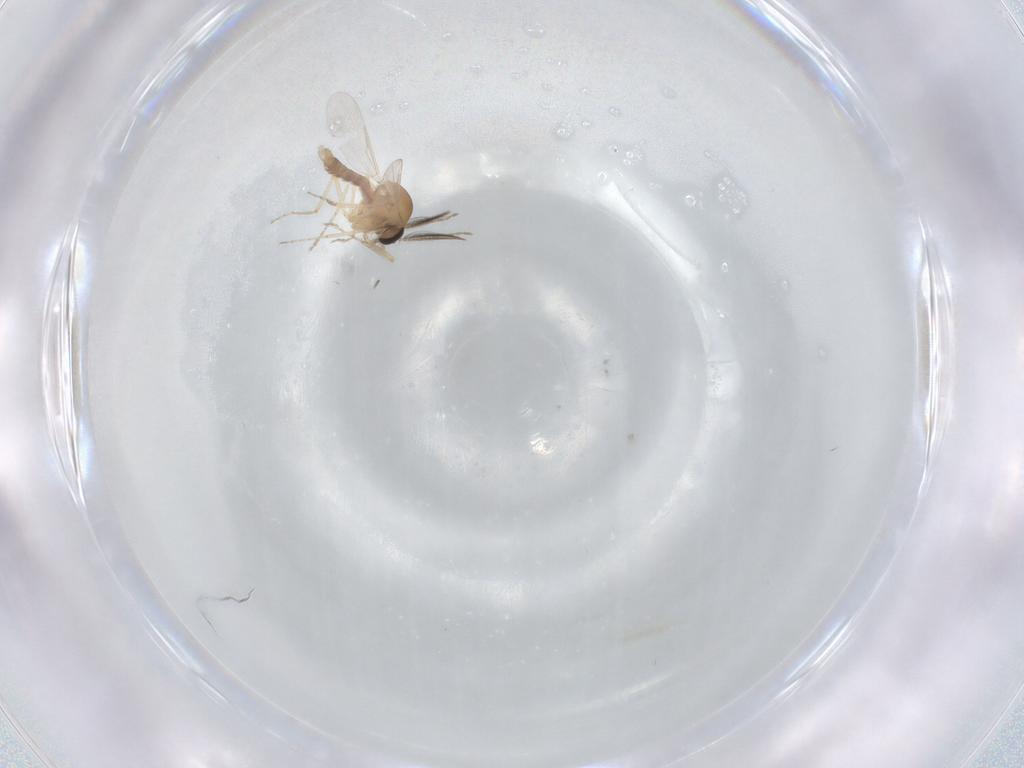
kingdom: Animalia
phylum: Arthropoda
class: Insecta
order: Diptera
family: Ceratopogonidae
